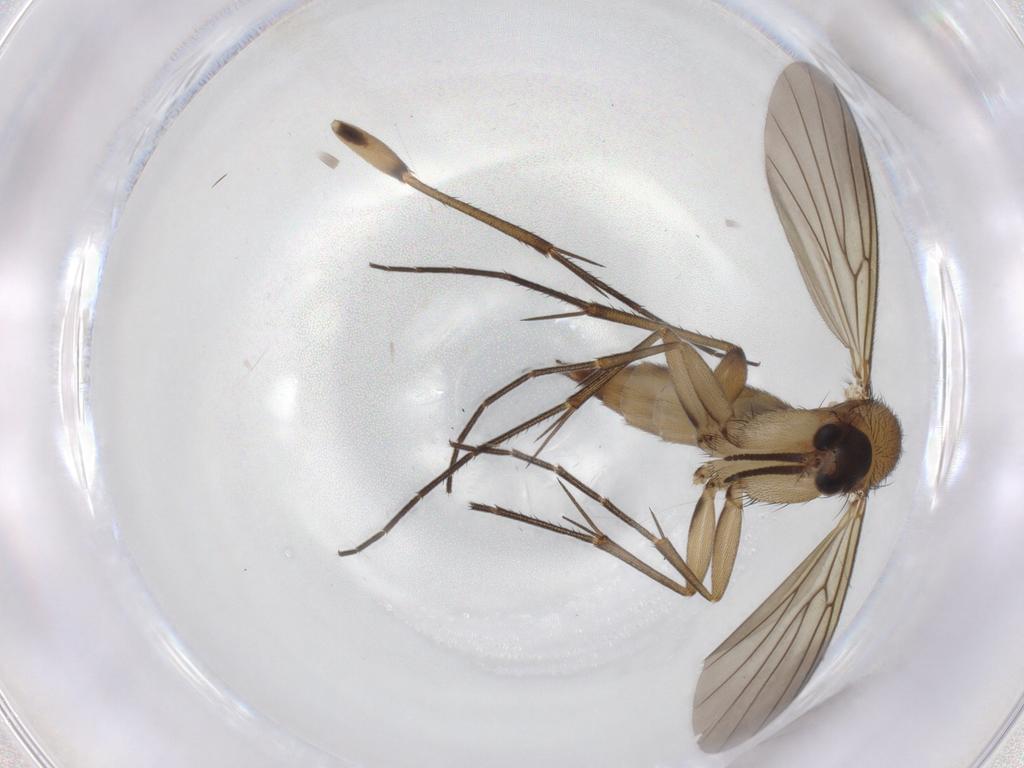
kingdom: Animalia
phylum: Arthropoda
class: Insecta
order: Diptera
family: Mycetophilidae
